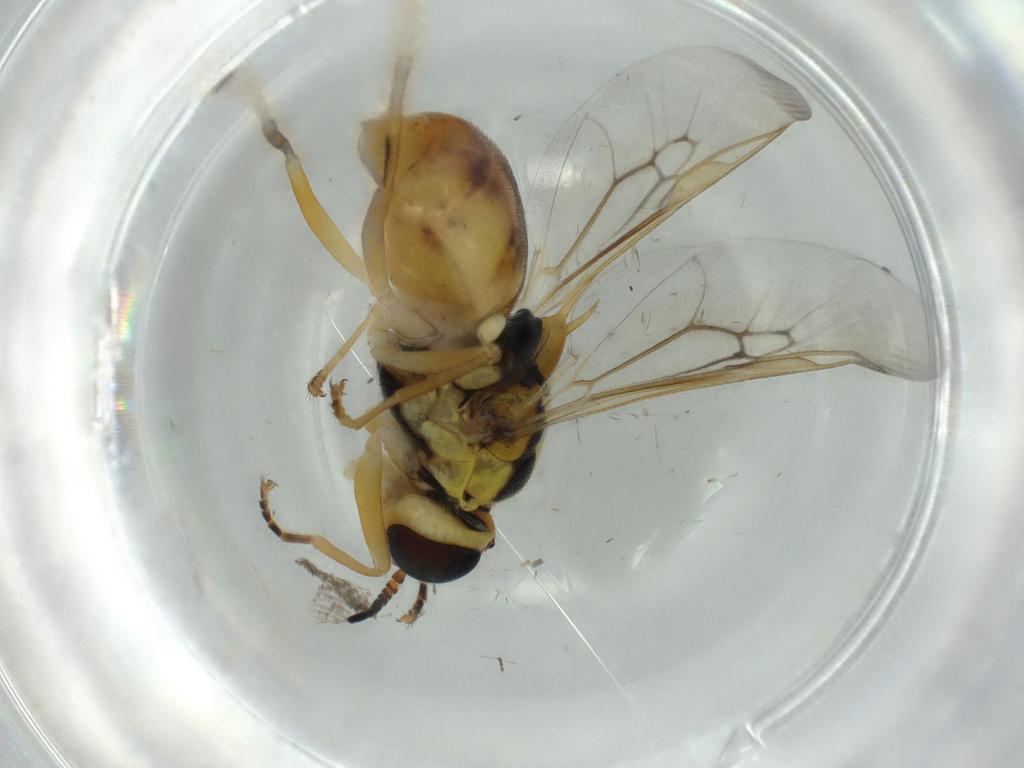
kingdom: Animalia
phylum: Arthropoda
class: Insecta
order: Diptera
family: Stratiomyidae
